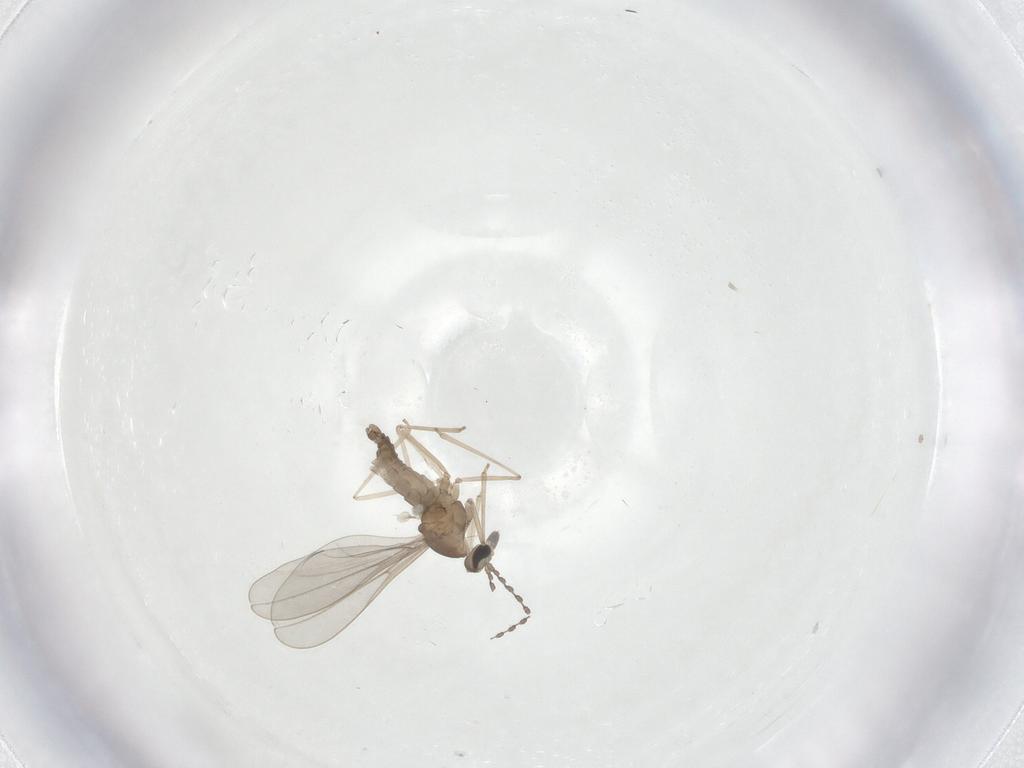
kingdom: Animalia
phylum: Arthropoda
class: Insecta
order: Diptera
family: Cecidomyiidae
